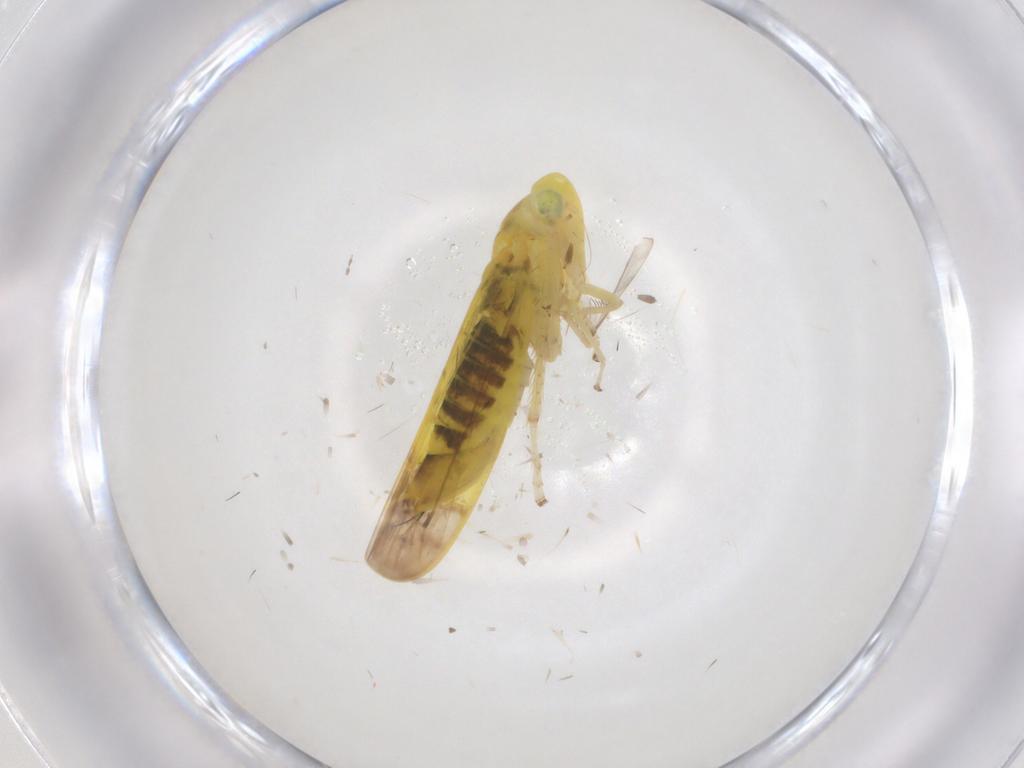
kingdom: Animalia
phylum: Arthropoda
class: Insecta
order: Hemiptera
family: Cicadellidae
